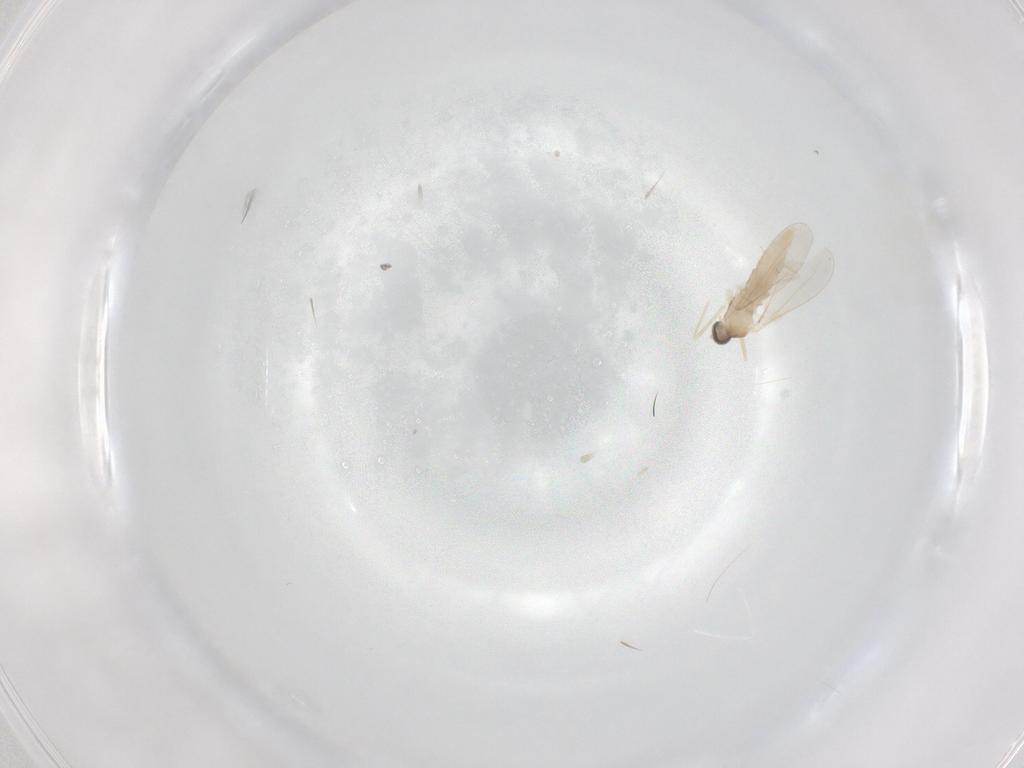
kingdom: Animalia
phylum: Arthropoda
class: Insecta
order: Diptera
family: Cecidomyiidae
